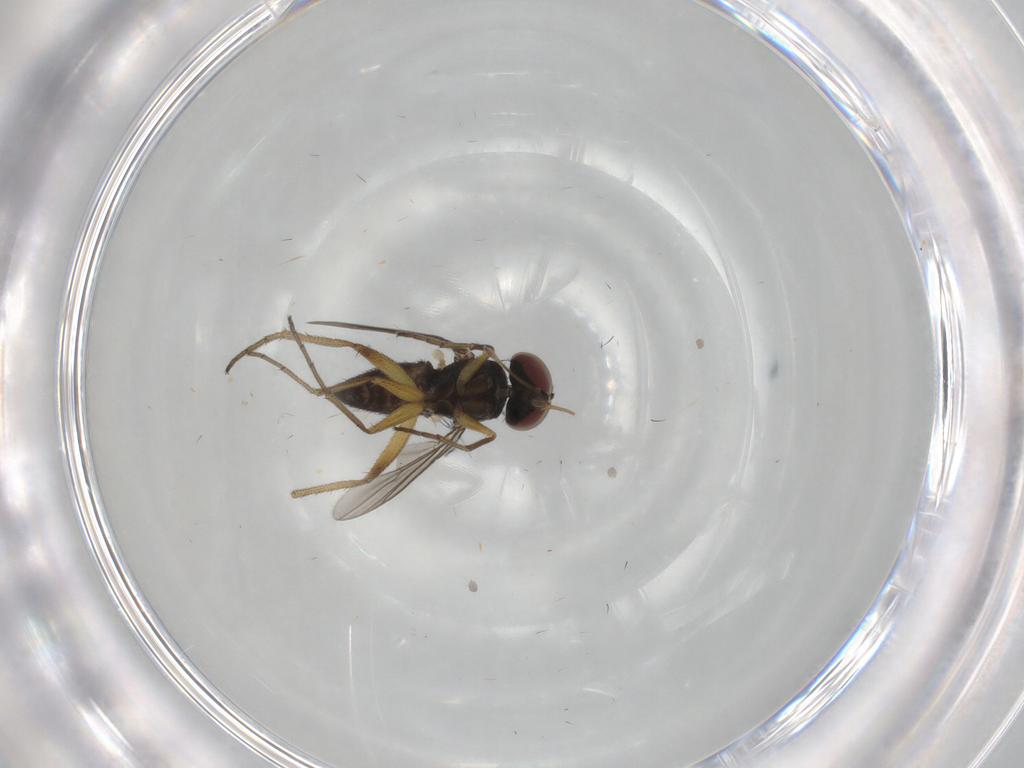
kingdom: Animalia
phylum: Arthropoda
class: Insecta
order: Diptera
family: Dolichopodidae
